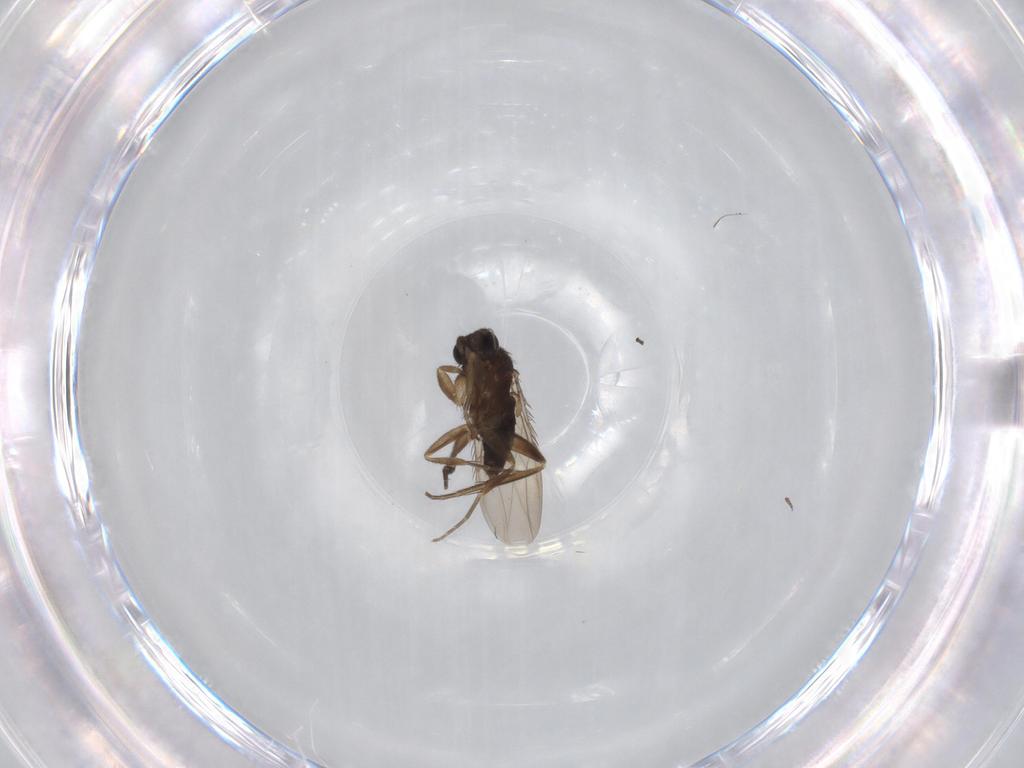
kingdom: Animalia
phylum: Arthropoda
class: Insecta
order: Diptera
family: Phoridae
